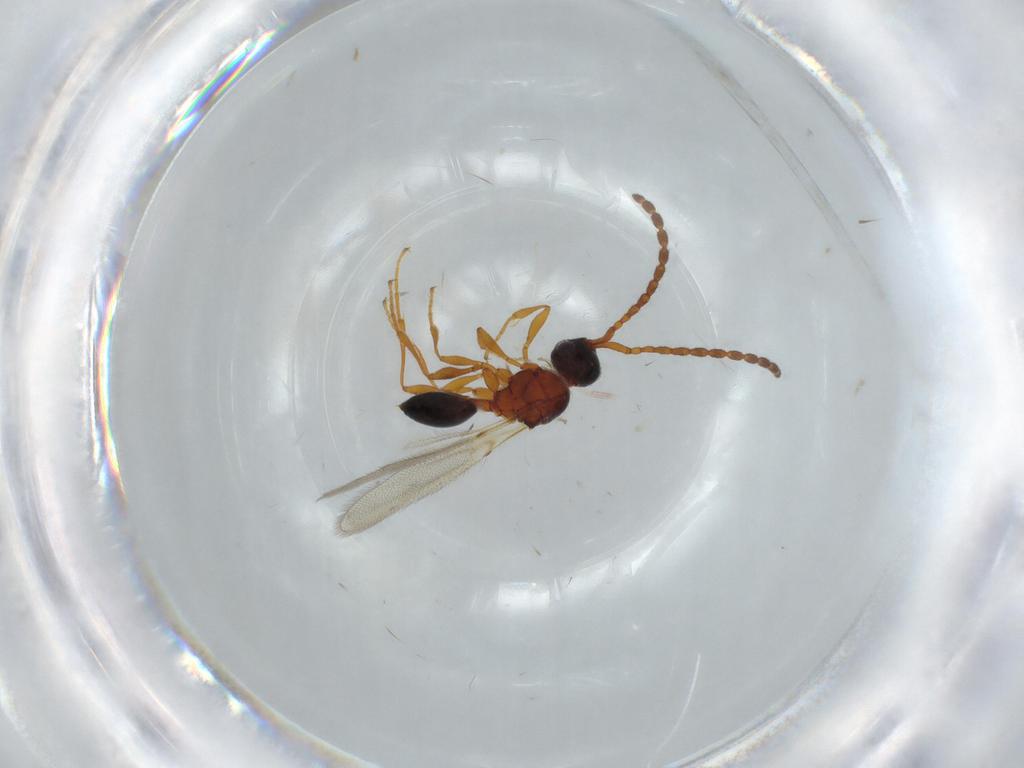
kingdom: Animalia
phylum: Arthropoda
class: Insecta
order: Hymenoptera
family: Diapriidae
